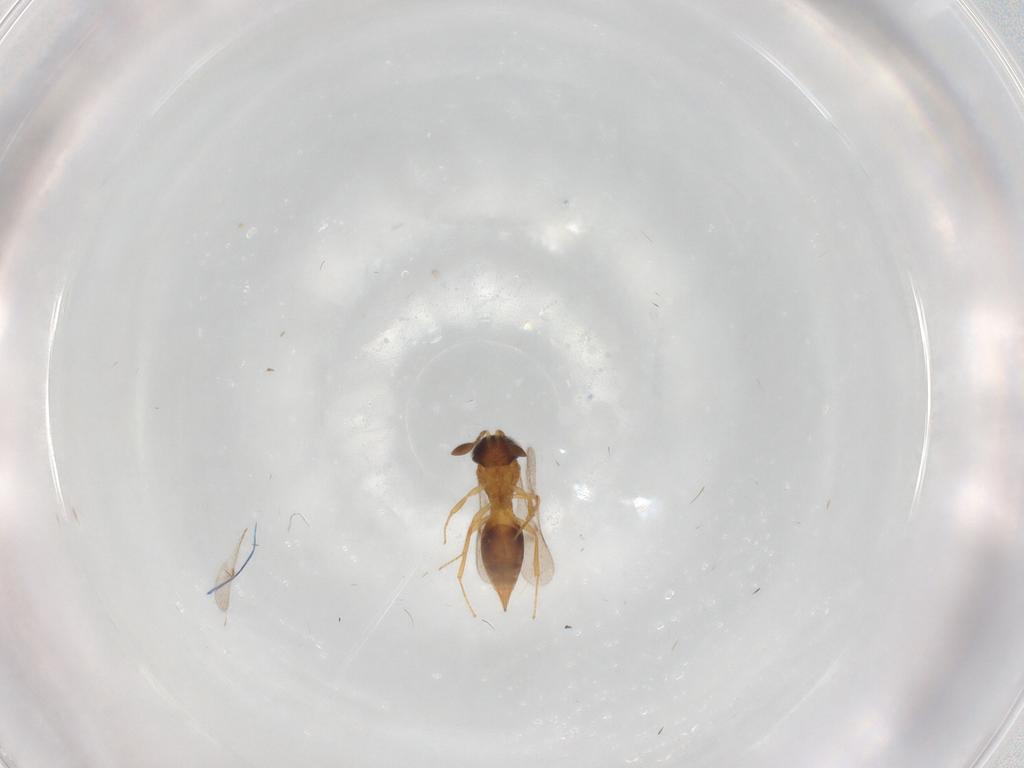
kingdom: Animalia
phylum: Arthropoda
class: Insecta
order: Hymenoptera
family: Scelionidae
